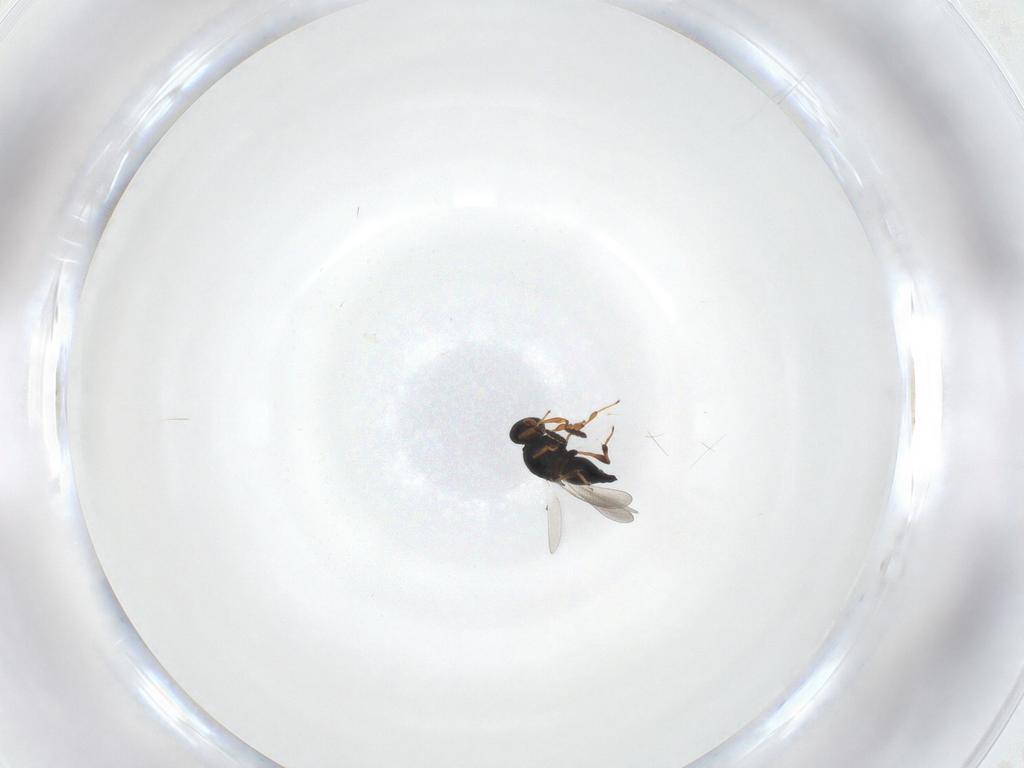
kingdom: Animalia
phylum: Arthropoda
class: Insecta
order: Hymenoptera
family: Platygastridae
